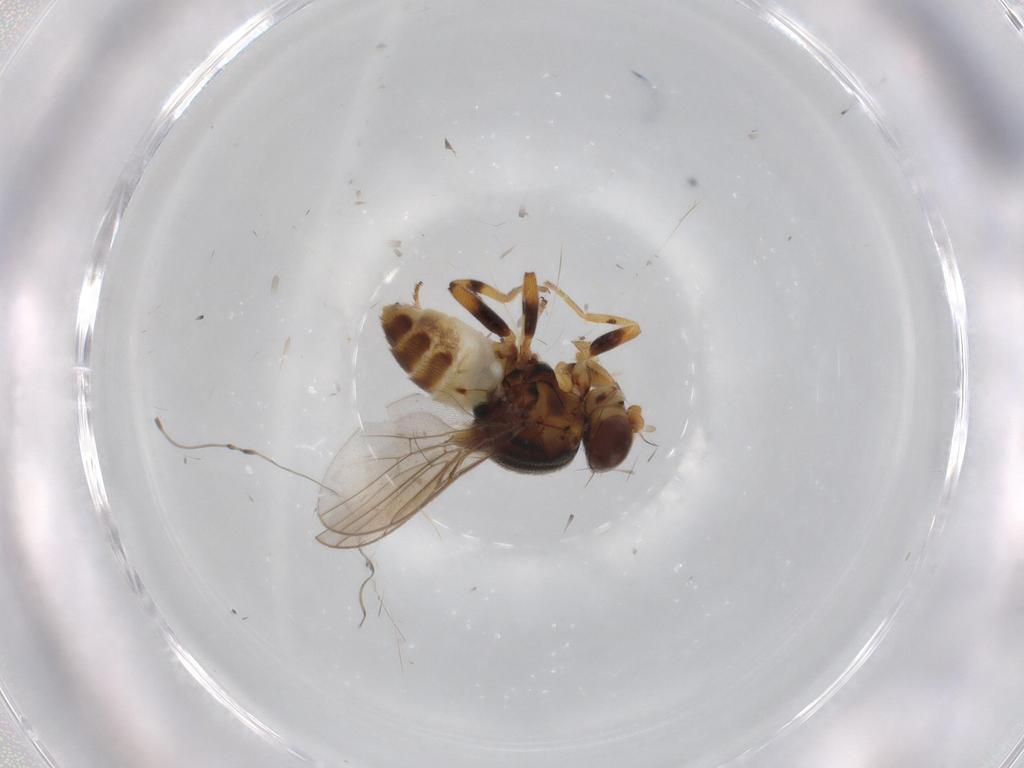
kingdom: Animalia
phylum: Arthropoda
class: Insecta
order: Diptera
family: Chloropidae
